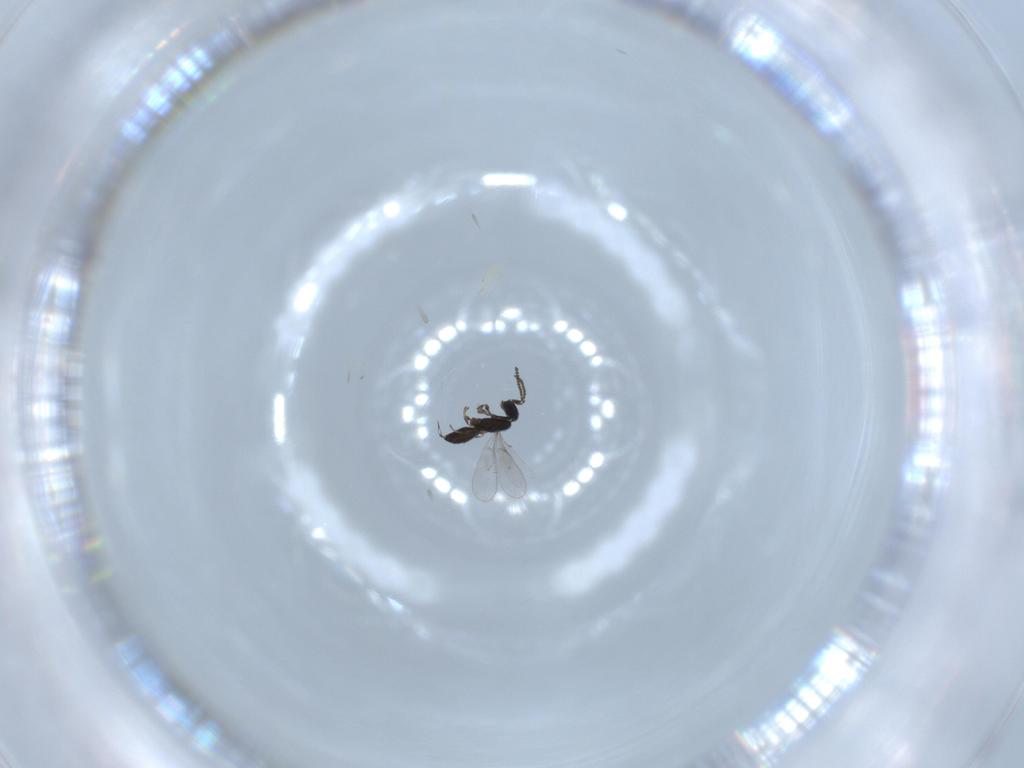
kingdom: Animalia
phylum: Arthropoda
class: Insecta
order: Hymenoptera
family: Scelionidae
